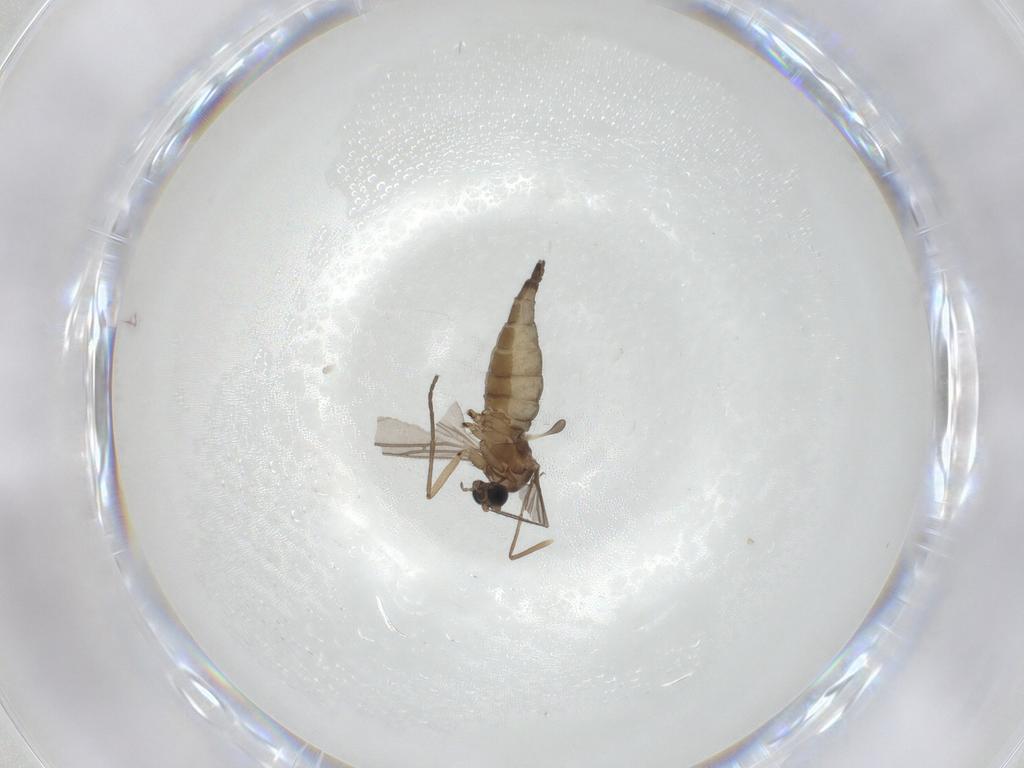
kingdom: Animalia
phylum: Arthropoda
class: Insecta
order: Diptera
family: Sciaridae
